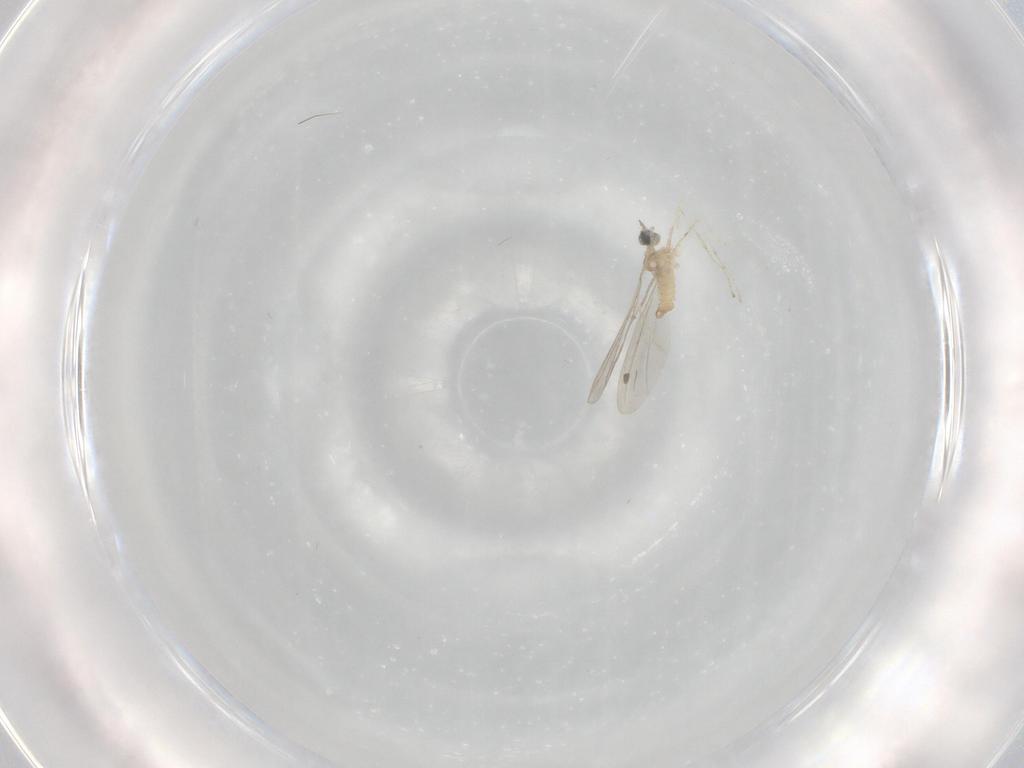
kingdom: Animalia
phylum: Arthropoda
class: Insecta
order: Diptera
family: Cecidomyiidae
